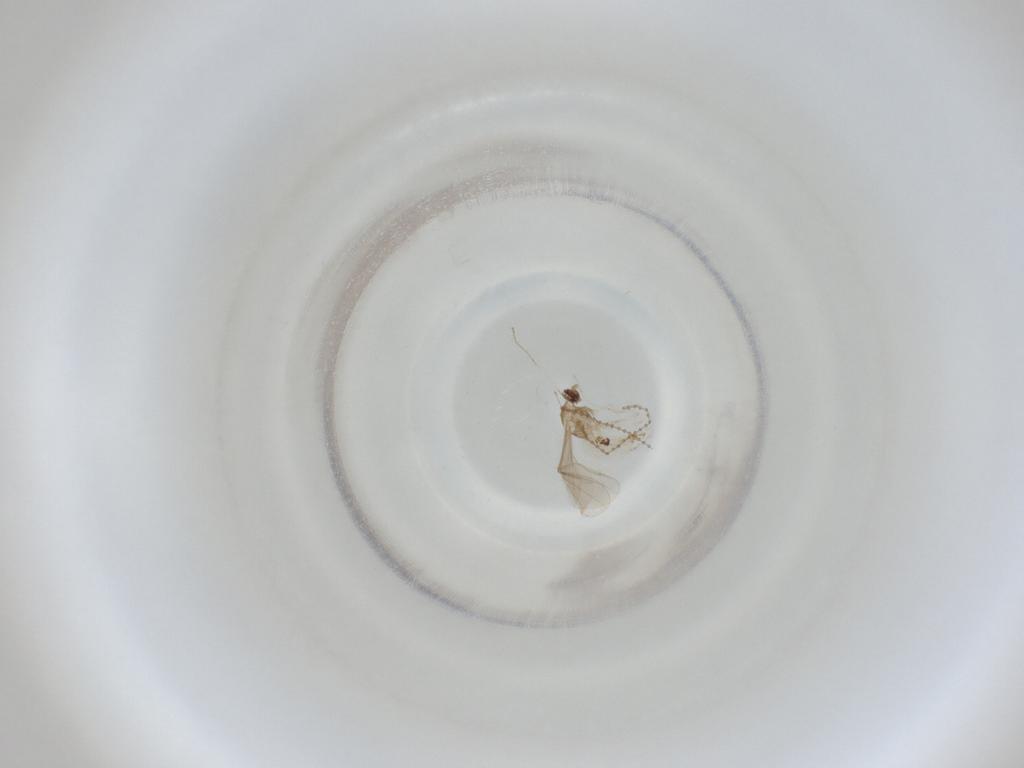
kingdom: Animalia
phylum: Arthropoda
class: Insecta
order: Diptera
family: Cecidomyiidae
